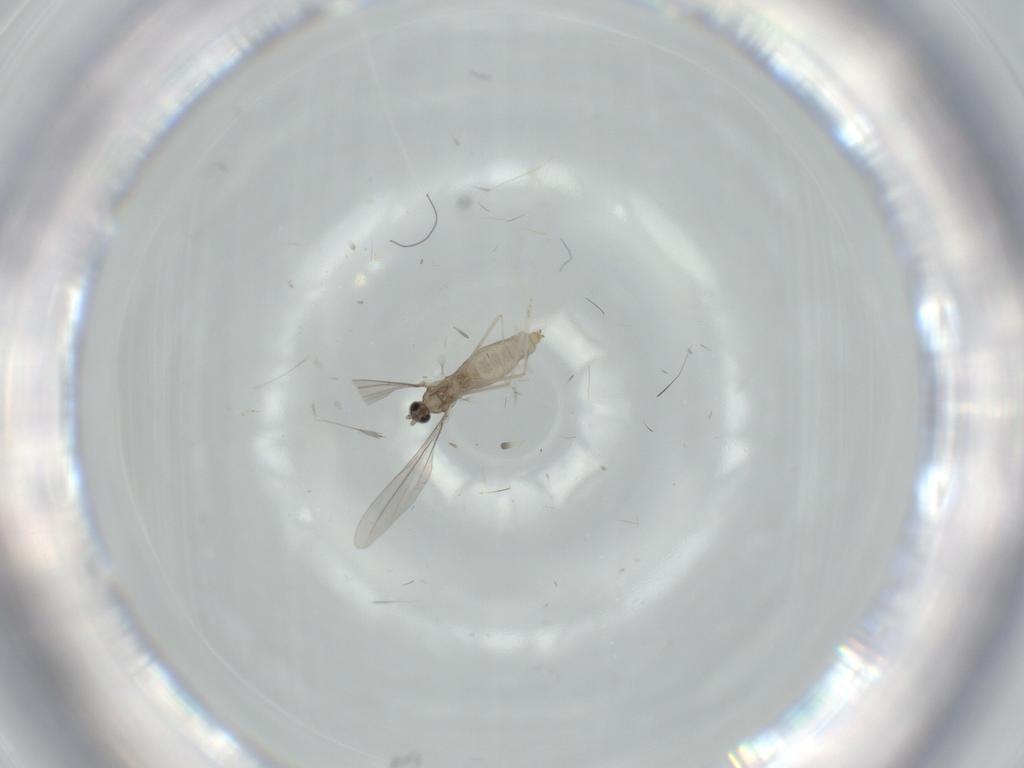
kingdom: Animalia
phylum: Arthropoda
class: Insecta
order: Diptera
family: Cecidomyiidae
